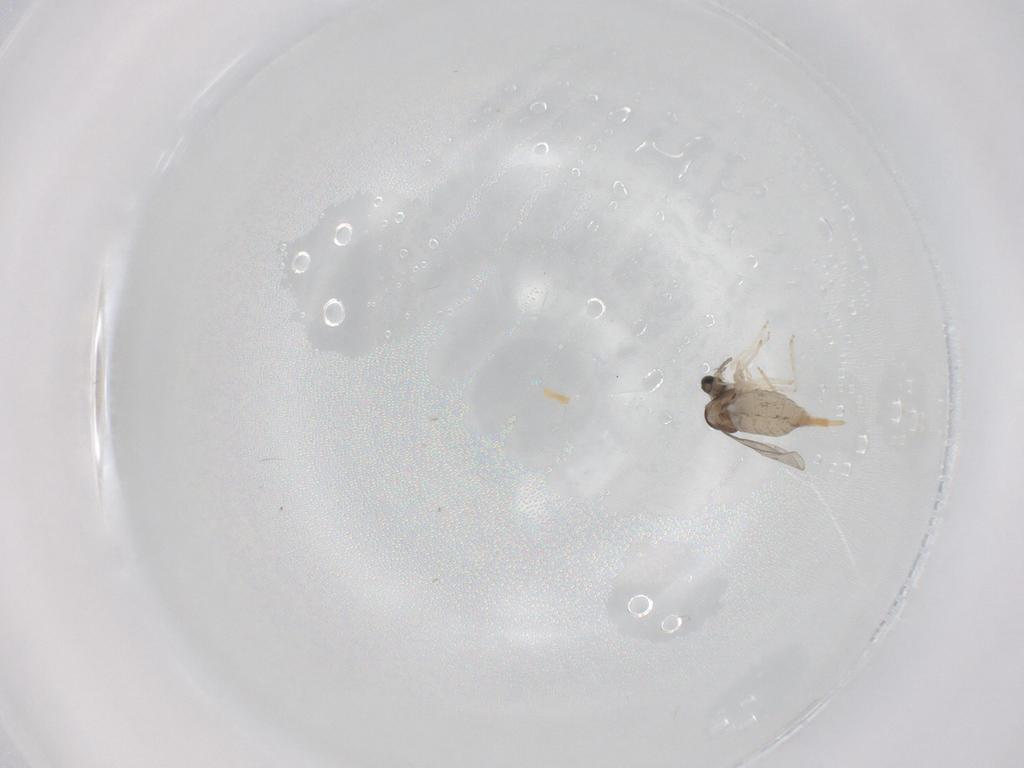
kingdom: Animalia
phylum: Arthropoda
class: Insecta
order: Diptera
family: Cecidomyiidae
